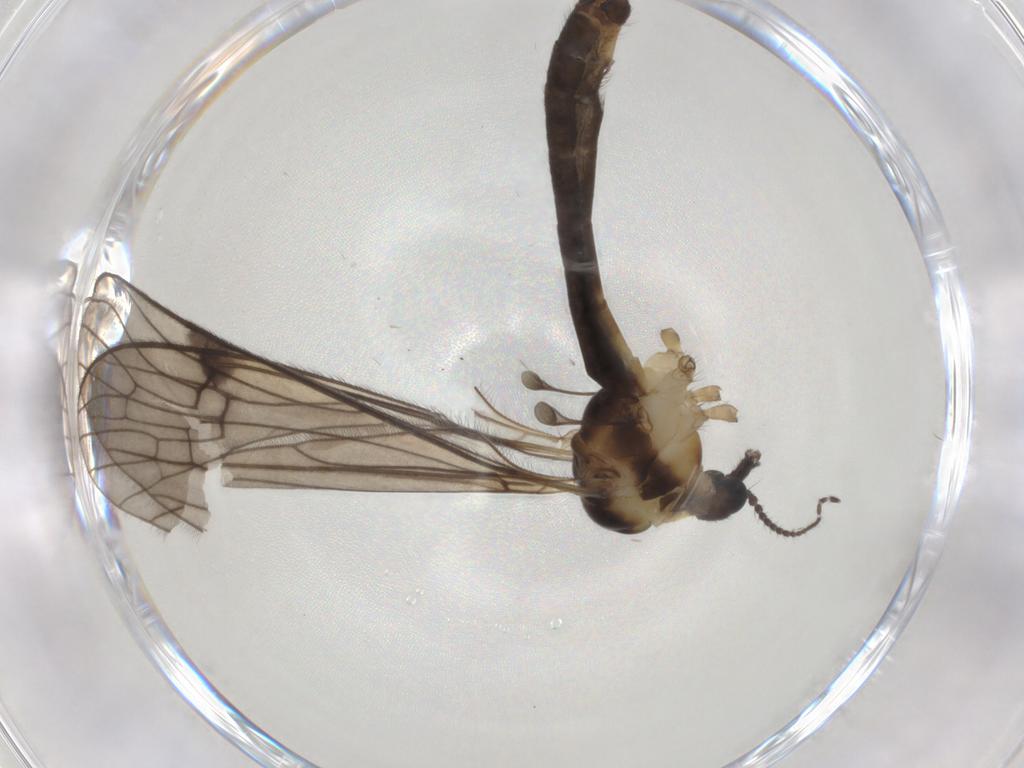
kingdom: Animalia
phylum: Arthropoda
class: Insecta
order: Diptera
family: Limoniidae
